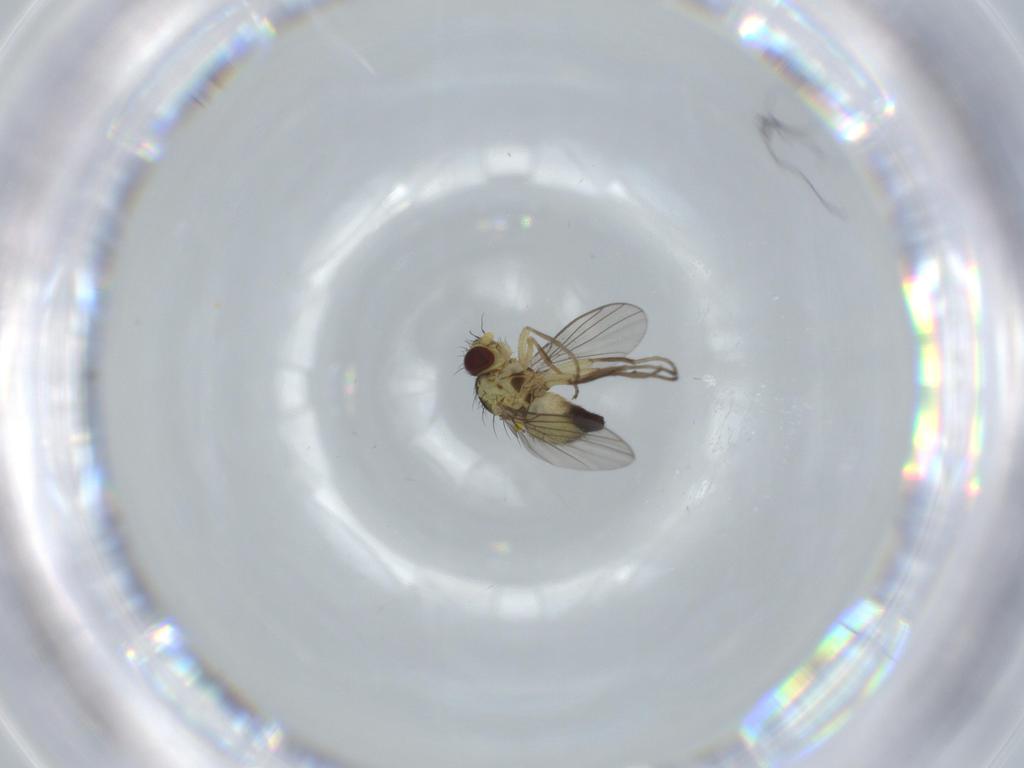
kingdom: Animalia
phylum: Arthropoda
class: Insecta
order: Diptera
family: Agromyzidae
